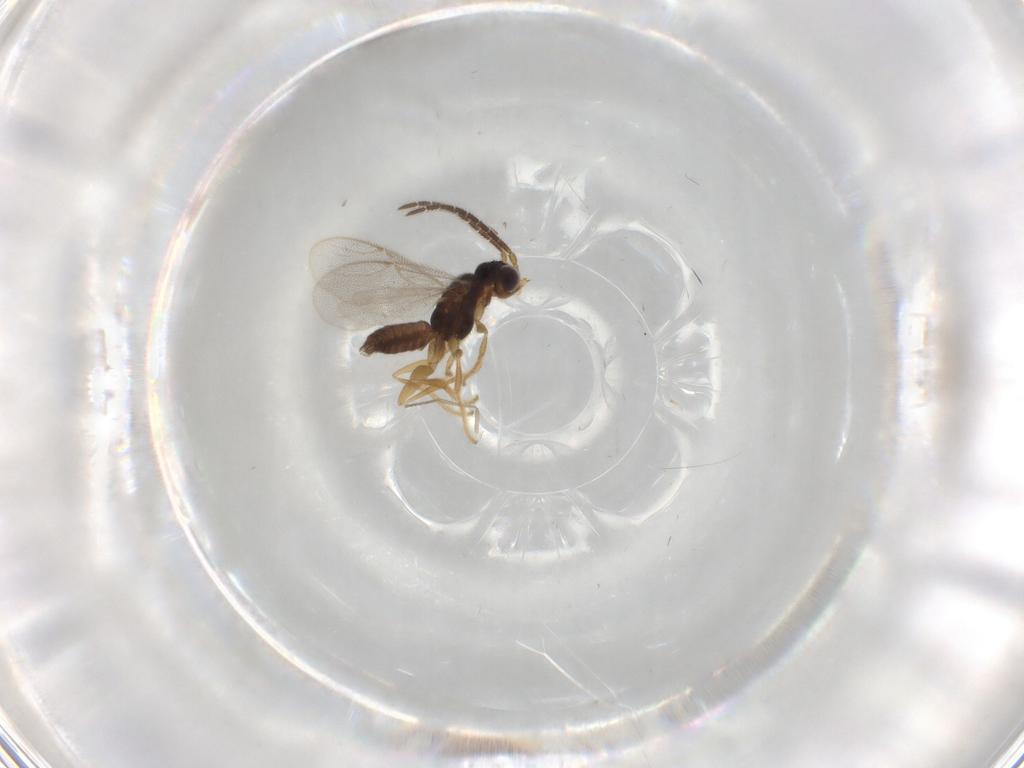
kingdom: Animalia
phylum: Arthropoda
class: Insecta
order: Hymenoptera
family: Dryinidae
